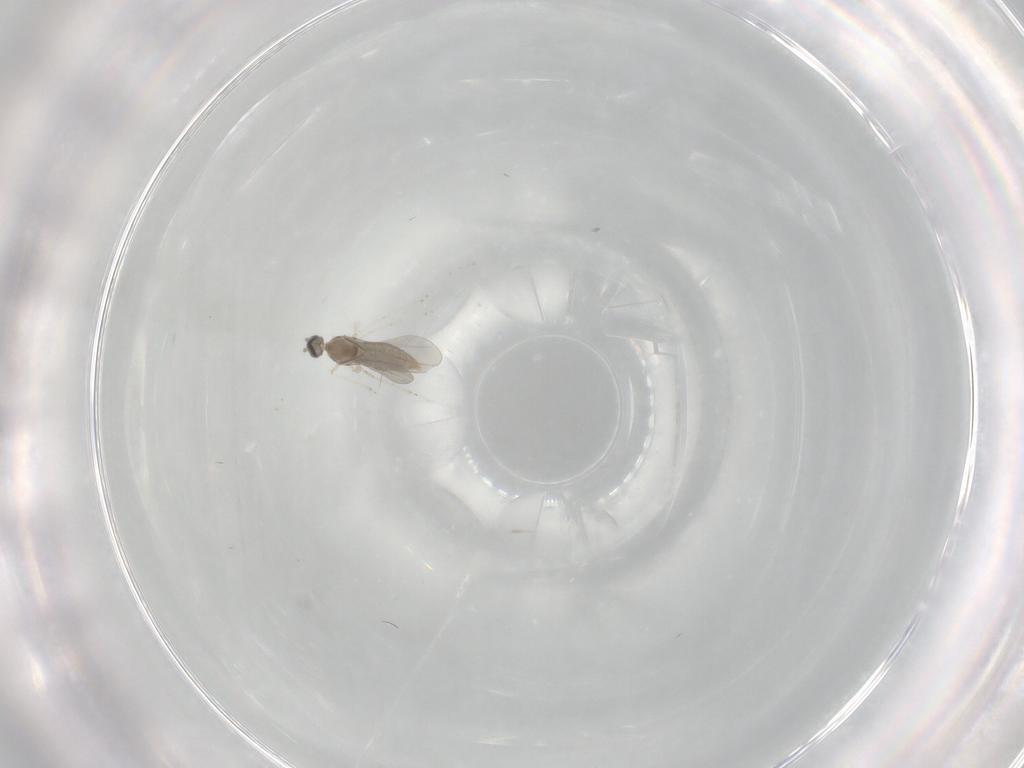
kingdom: Animalia
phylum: Arthropoda
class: Insecta
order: Diptera
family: Cecidomyiidae
